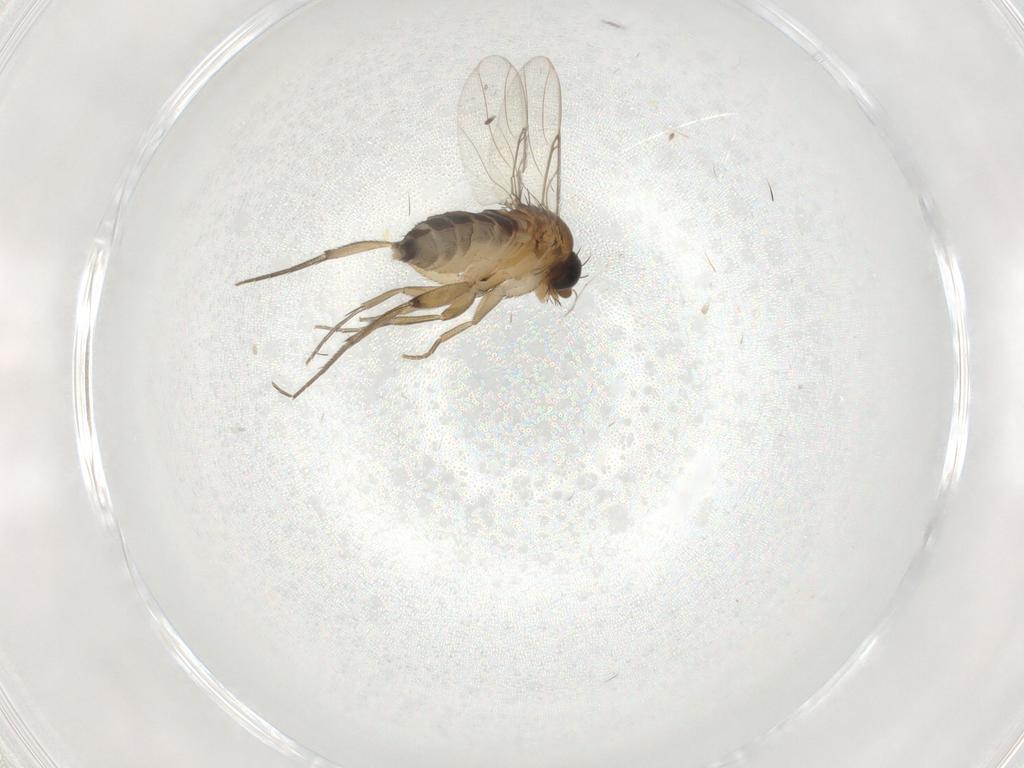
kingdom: Animalia
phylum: Arthropoda
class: Insecta
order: Diptera
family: Phoridae
